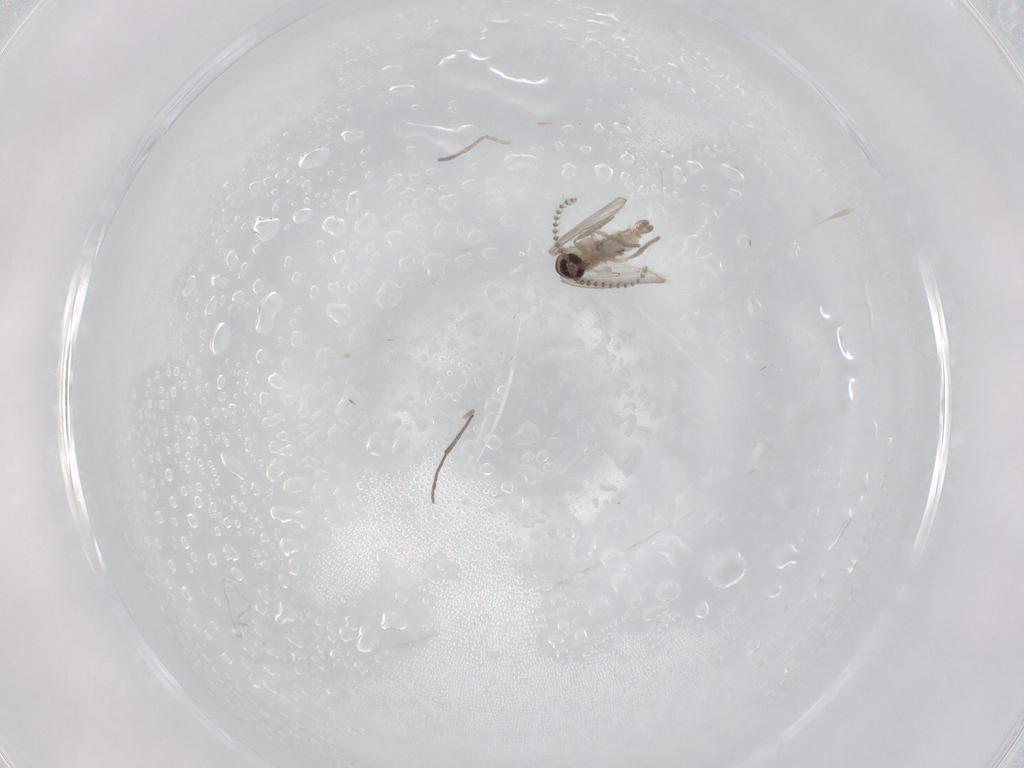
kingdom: Animalia
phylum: Arthropoda
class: Insecta
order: Diptera
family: Psychodidae
